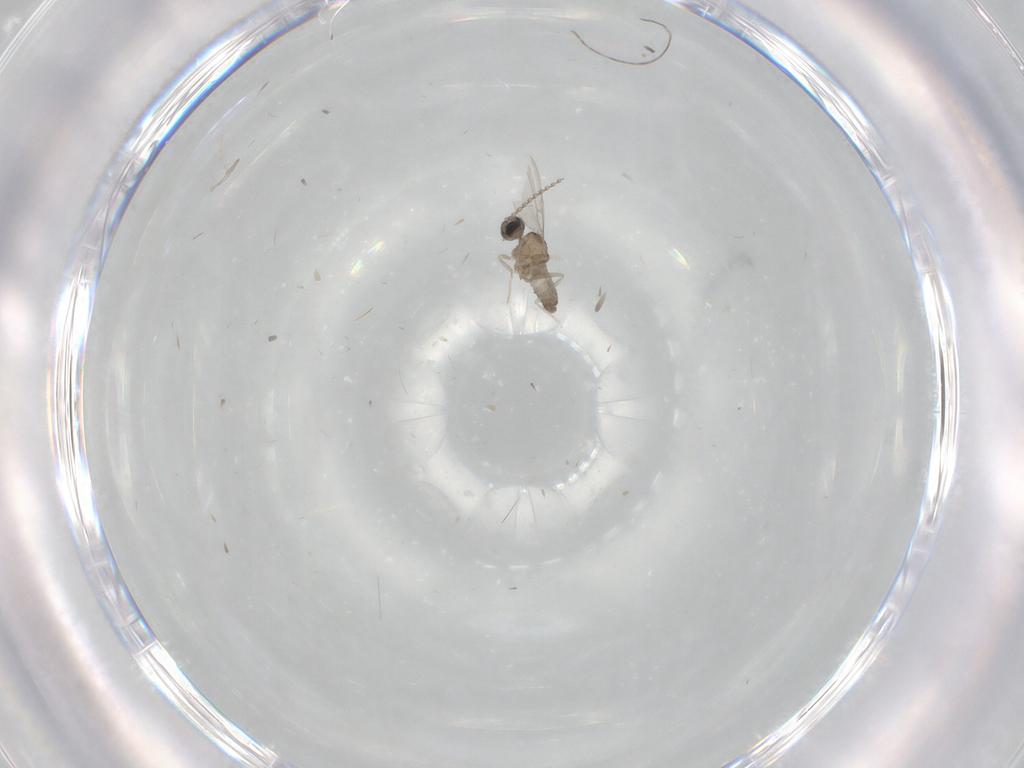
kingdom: Animalia
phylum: Arthropoda
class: Insecta
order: Diptera
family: Cecidomyiidae
